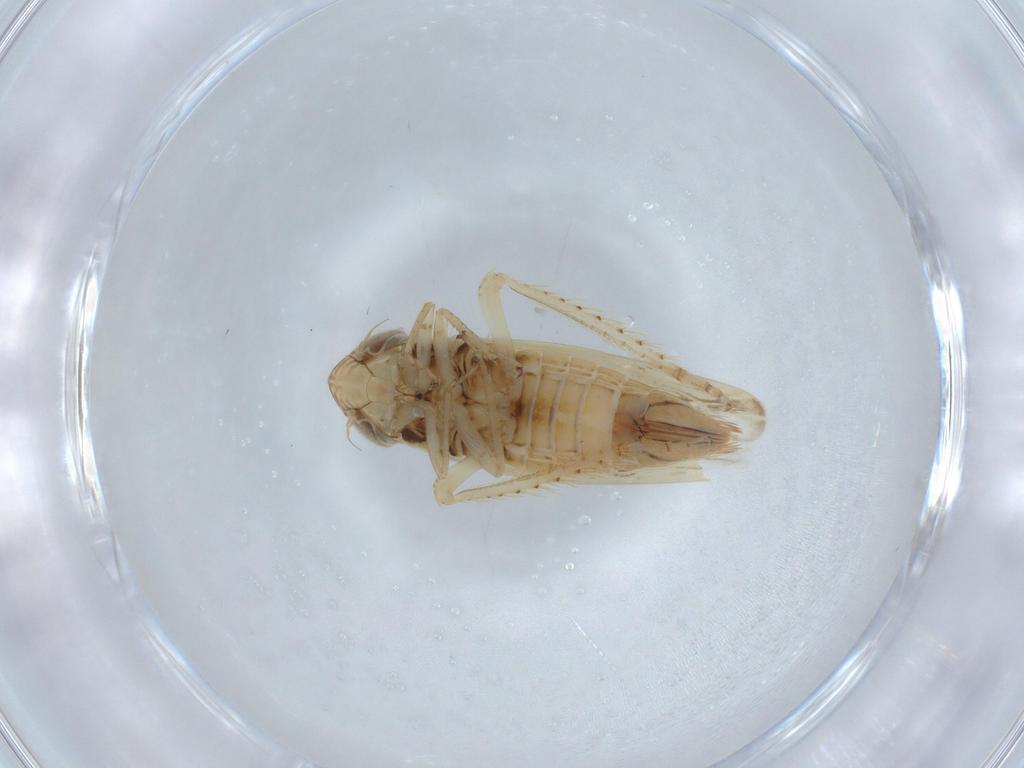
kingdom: Animalia
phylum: Arthropoda
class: Insecta
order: Hemiptera
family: Cicadellidae
